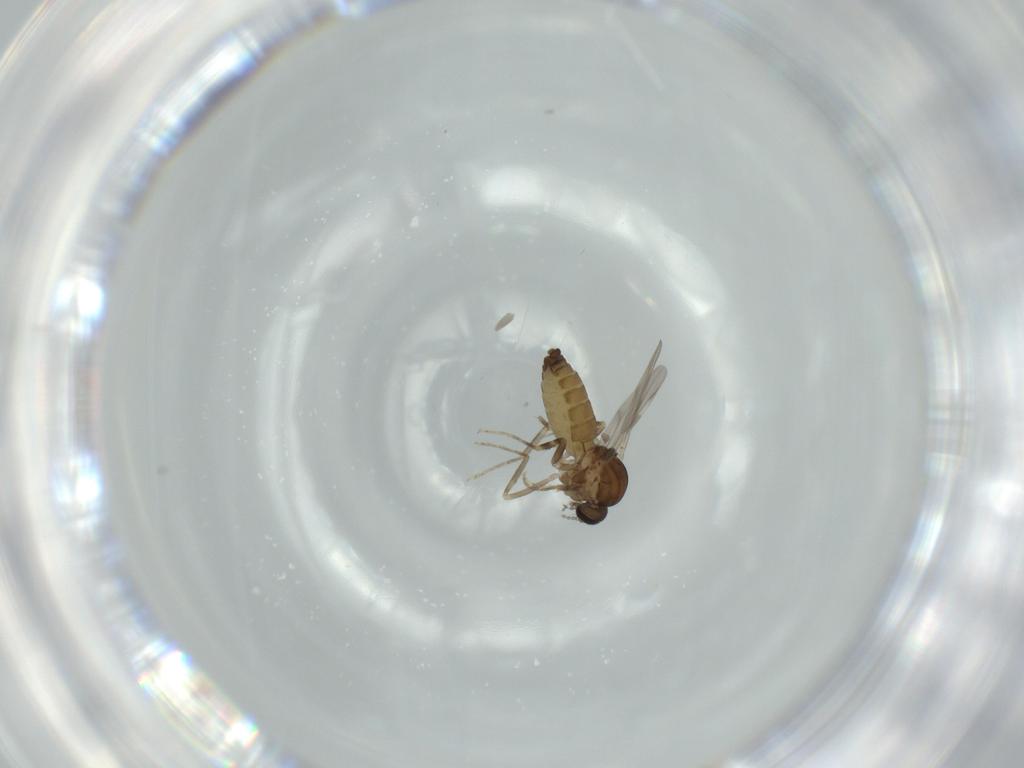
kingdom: Animalia
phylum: Arthropoda
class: Insecta
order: Diptera
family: Ceratopogonidae
